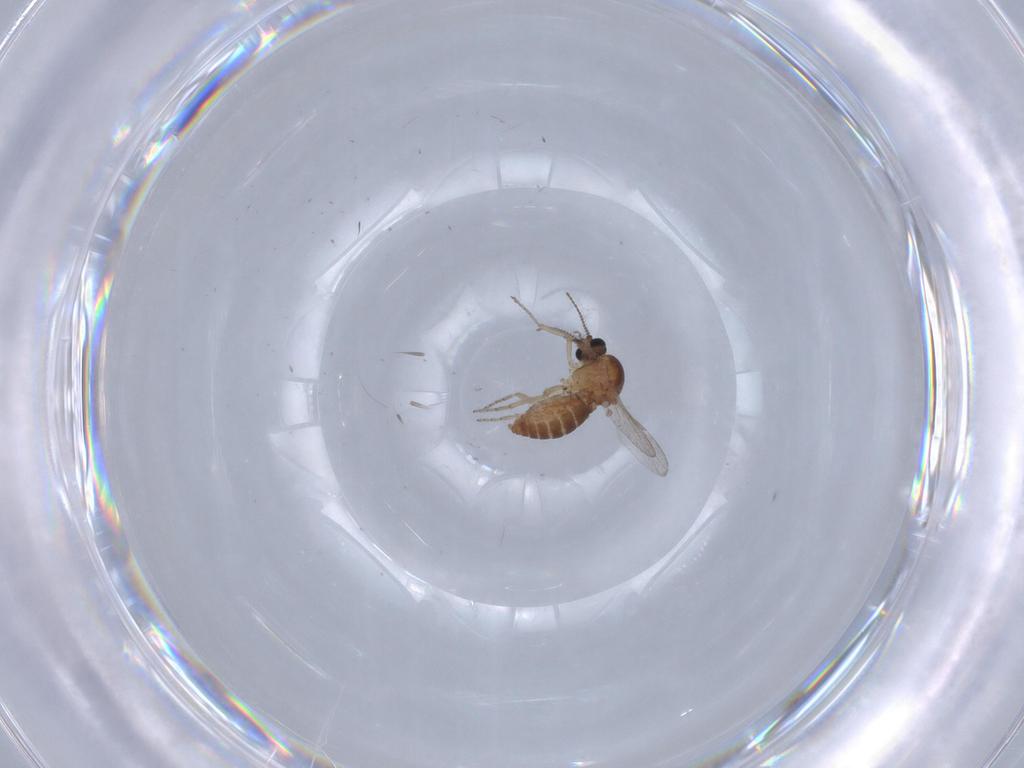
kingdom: Animalia
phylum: Arthropoda
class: Insecta
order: Diptera
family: Ceratopogonidae
